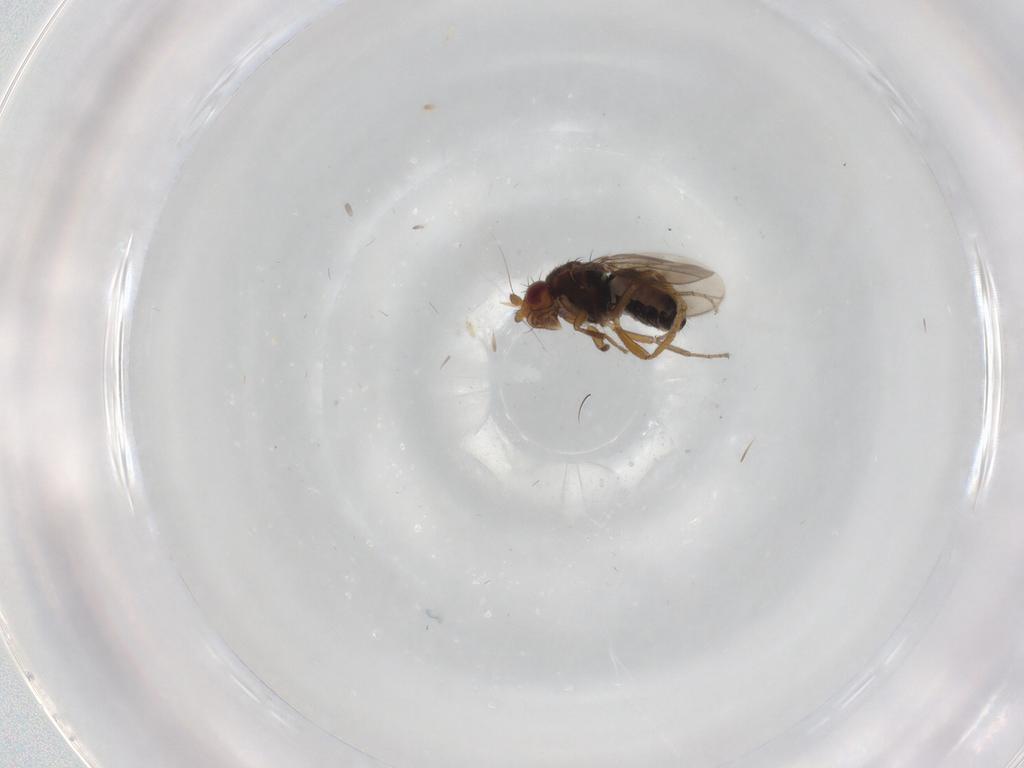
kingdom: Animalia
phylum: Arthropoda
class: Insecta
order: Diptera
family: Sphaeroceridae
